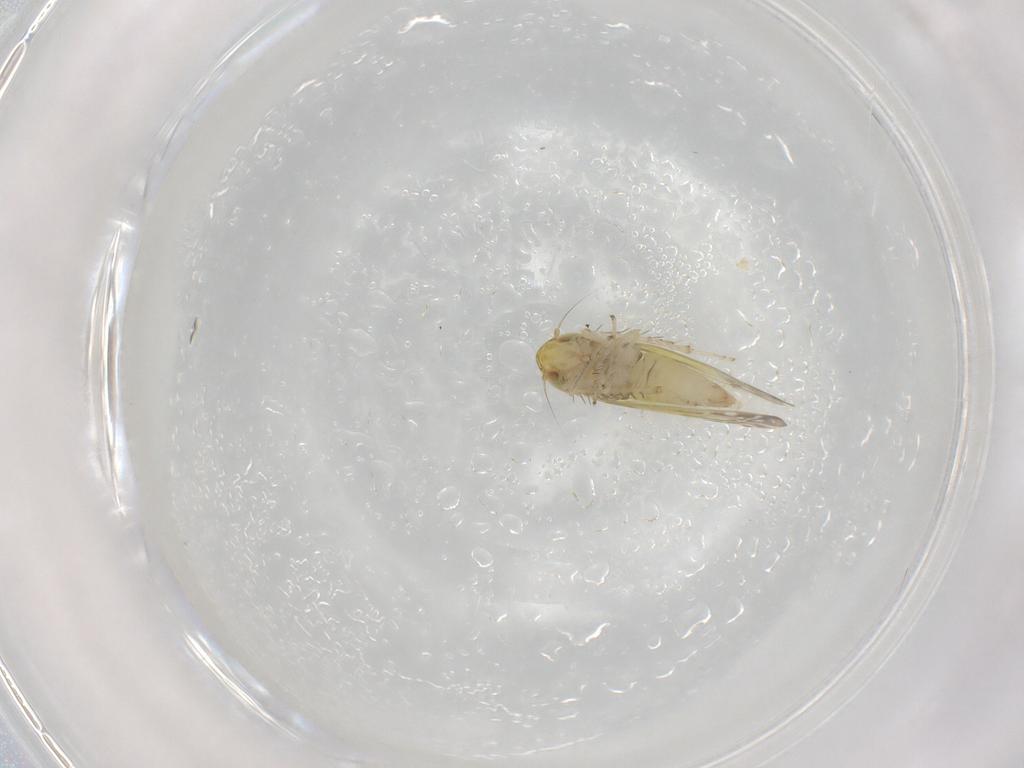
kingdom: Animalia
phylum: Arthropoda
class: Insecta
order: Hemiptera
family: Cicadellidae
